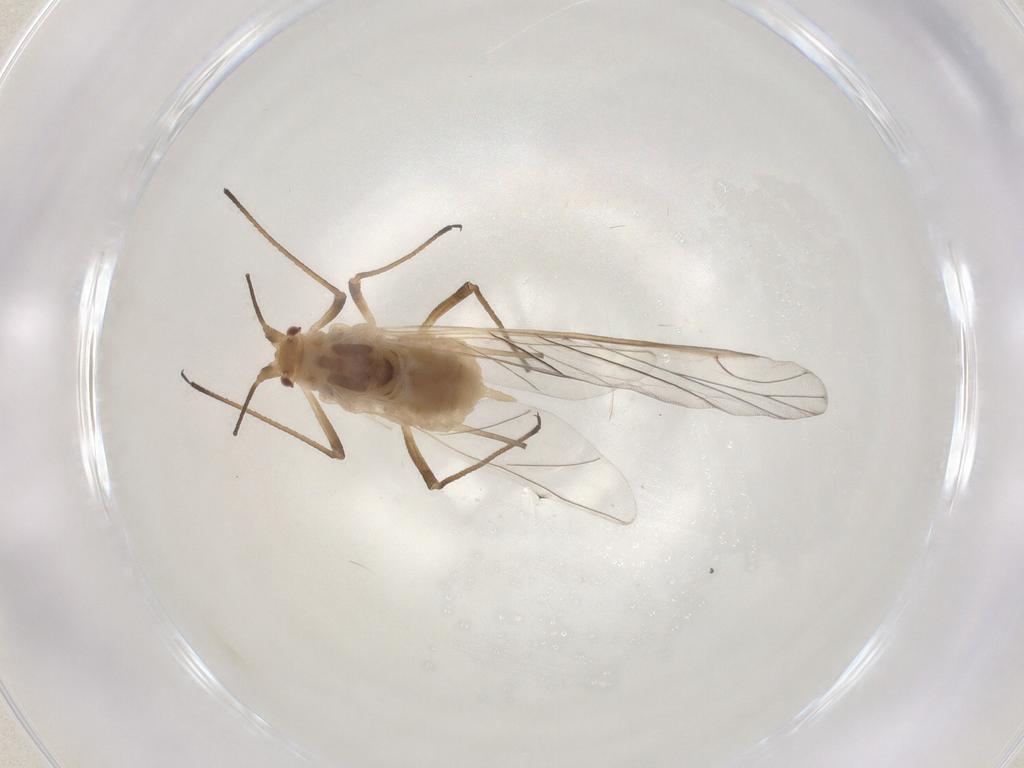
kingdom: Animalia
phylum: Arthropoda
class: Insecta
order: Hemiptera
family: Aphididae
